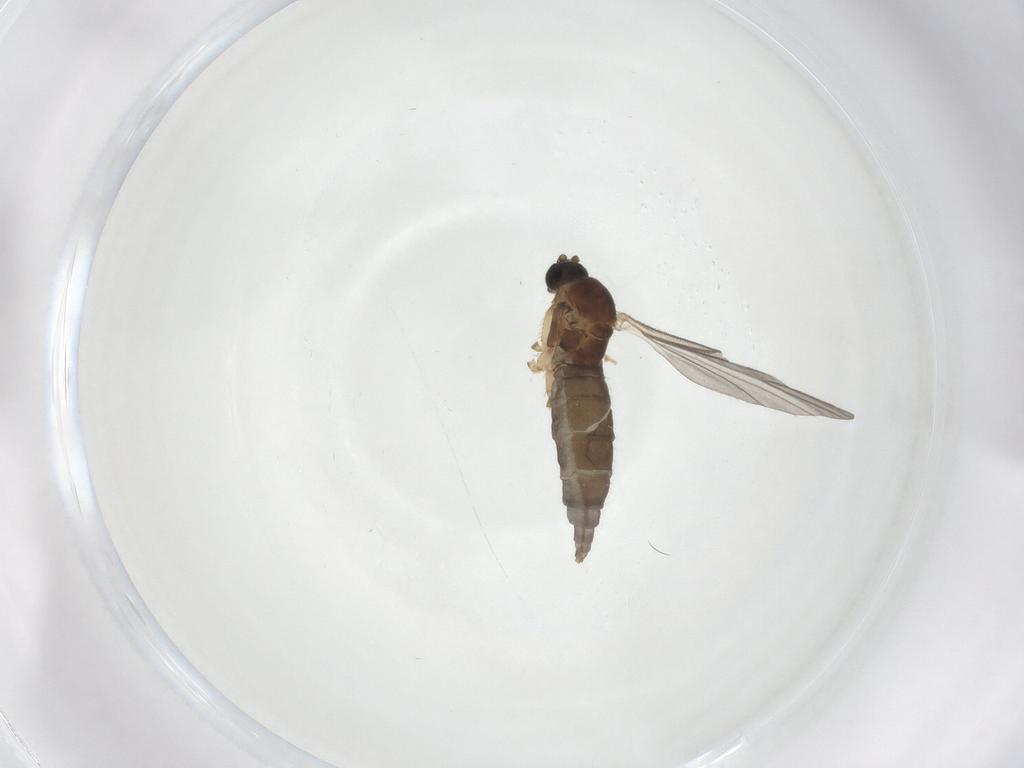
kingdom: Animalia
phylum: Arthropoda
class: Insecta
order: Diptera
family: Sciaridae
